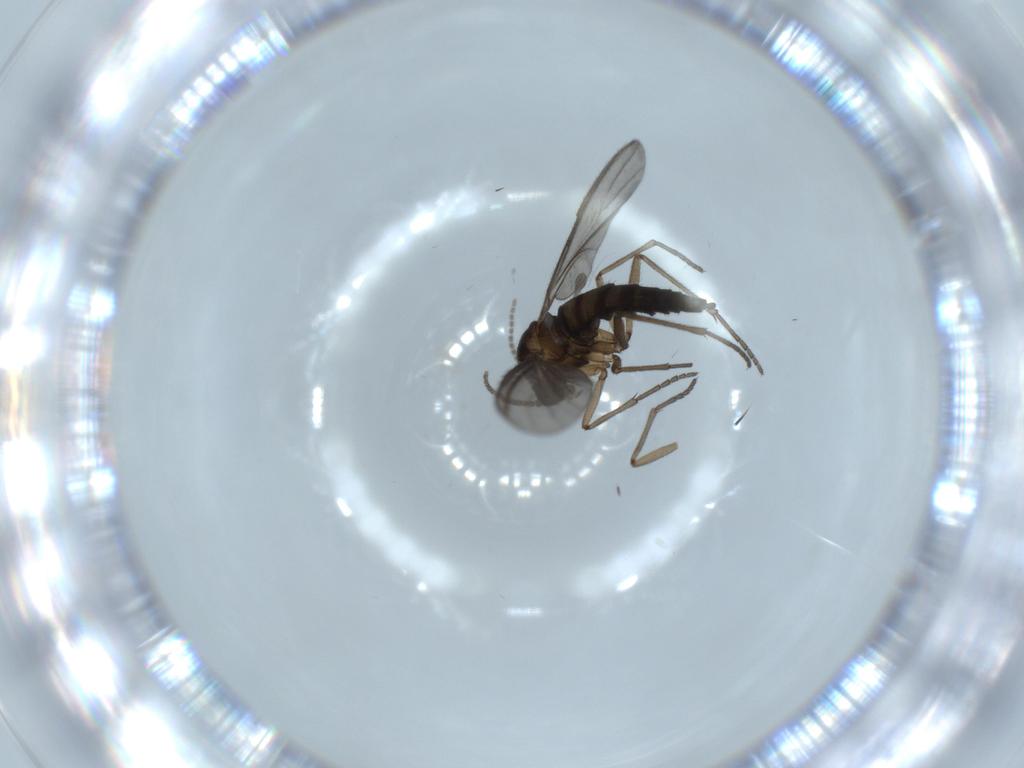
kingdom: Animalia
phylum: Arthropoda
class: Insecta
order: Diptera
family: Sciaridae
